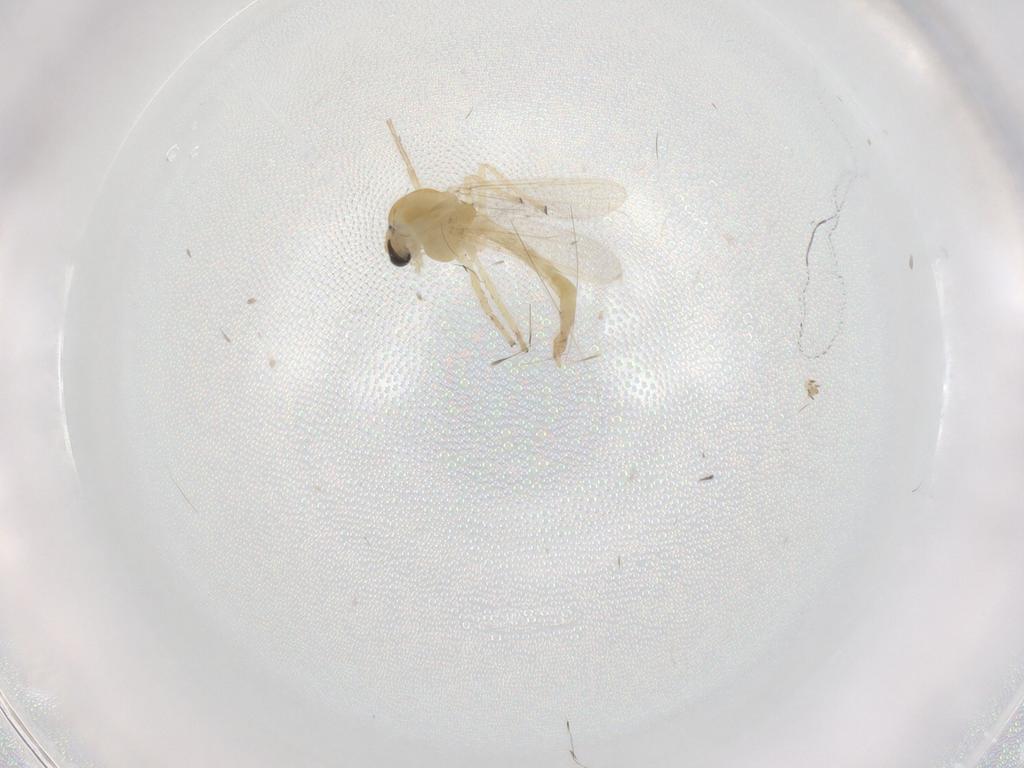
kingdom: Animalia
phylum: Arthropoda
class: Insecta
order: Diptera
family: Chironomidae
